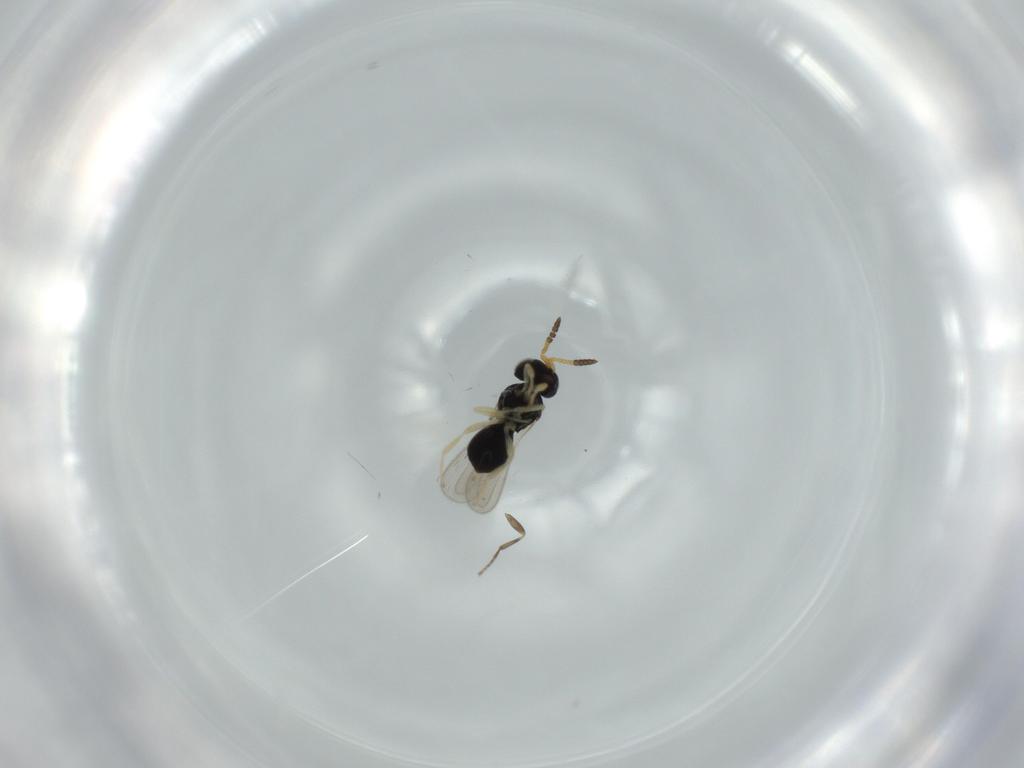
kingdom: Animalia
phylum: Arthropoda
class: Insecta
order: Hymenoptera
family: Scelionidae
